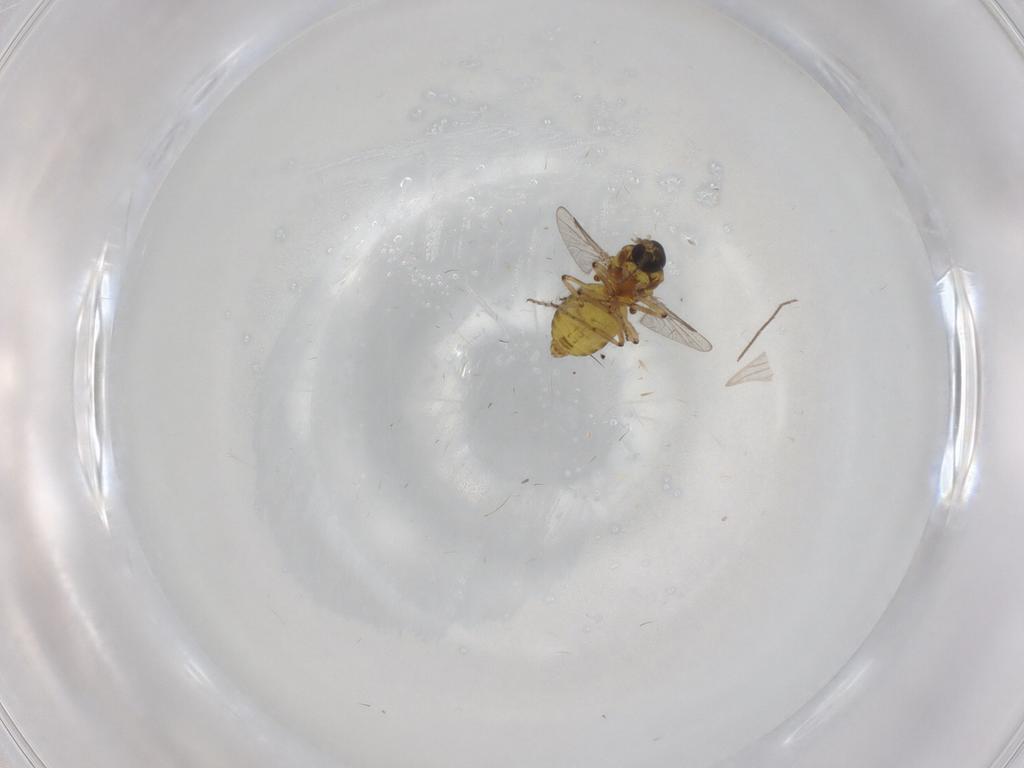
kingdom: Animalia
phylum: Arthropoda
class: Insecta
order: Diptera
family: Ceratopogonidae
